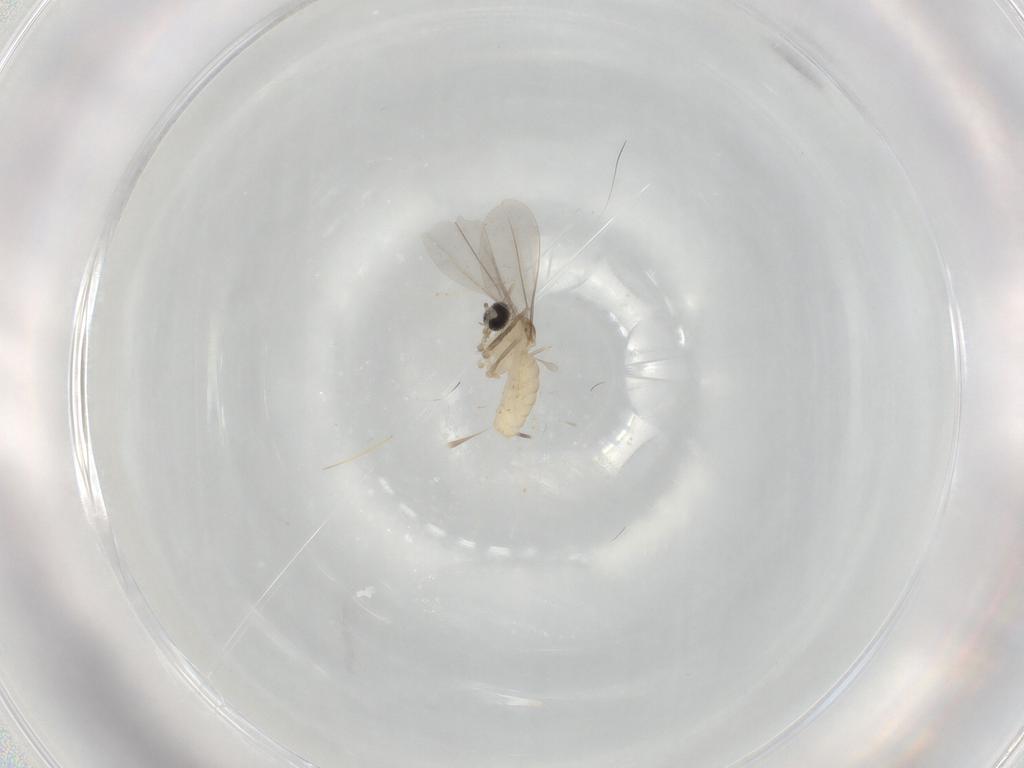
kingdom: Animalia
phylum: Arthropoda
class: Insecta
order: Diptera
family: Cecidomyiidae
